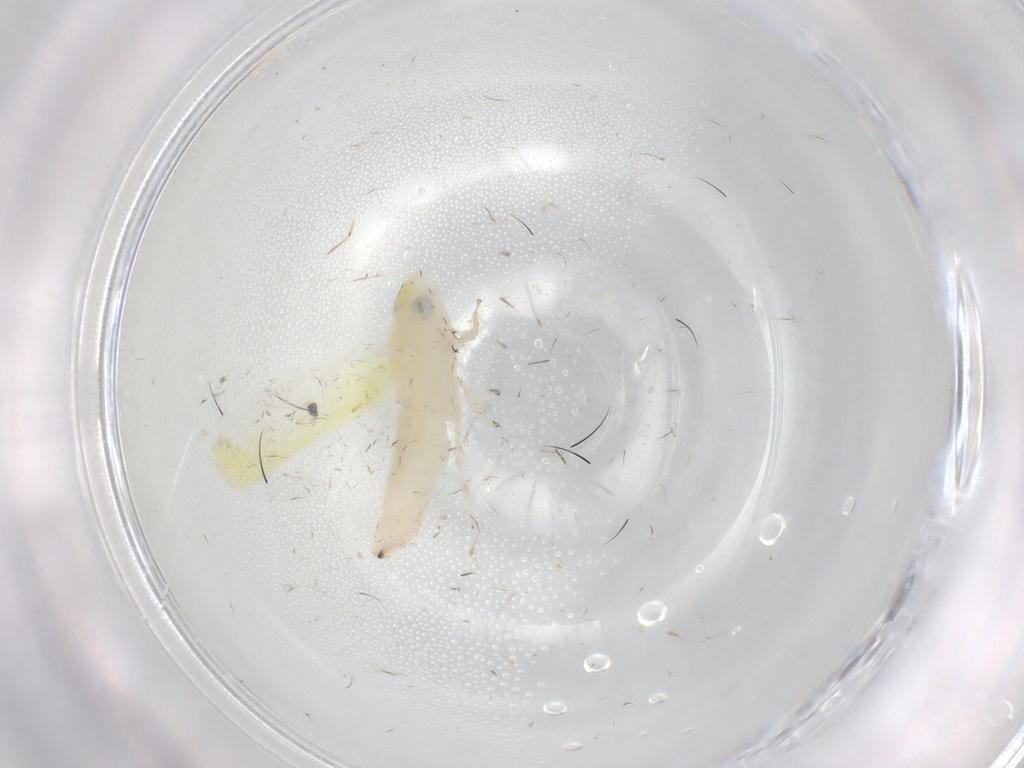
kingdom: Animalia
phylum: Arthropoda
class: Insecta
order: Hemiptera
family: Cicadellidae
